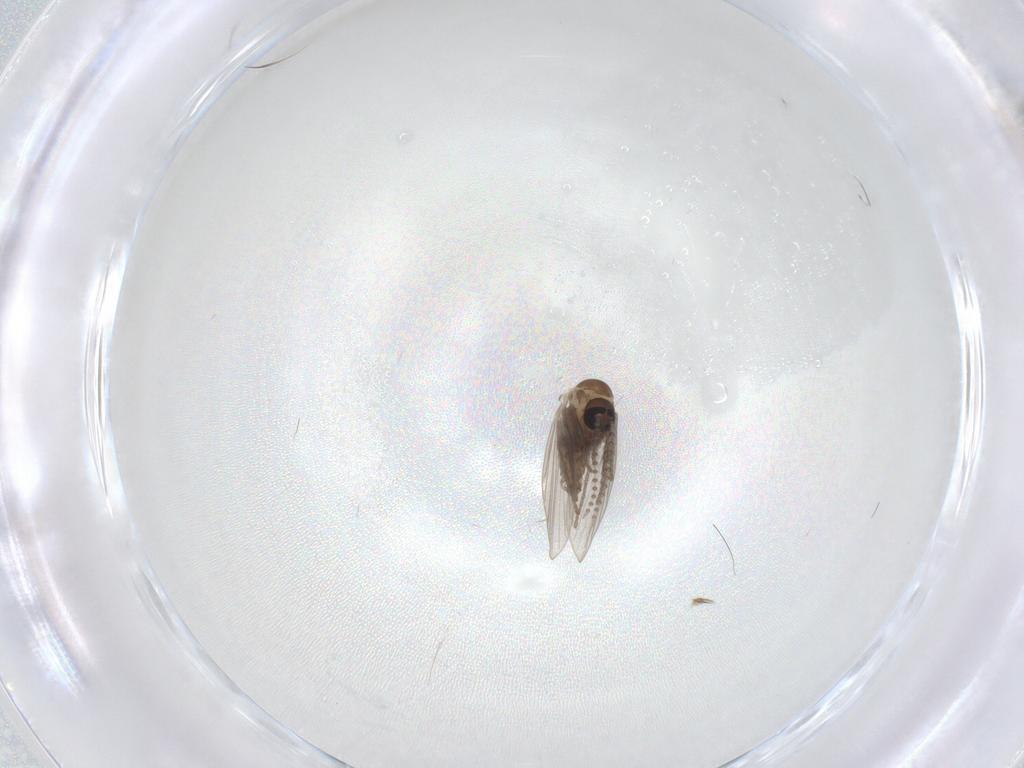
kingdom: Animalia
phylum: Arthropoda
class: Insecta
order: Diptera
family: Psychodidae
